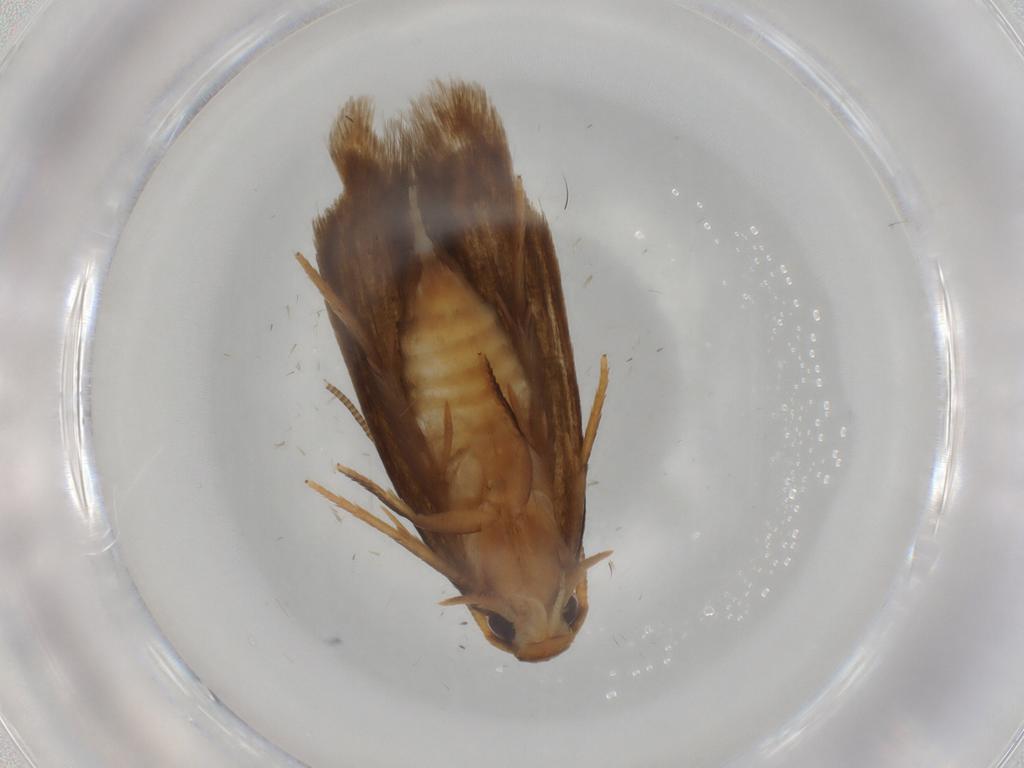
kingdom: Animalia
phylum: Arthropoda
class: Insecta
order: Lepidoptera
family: Tineidae
